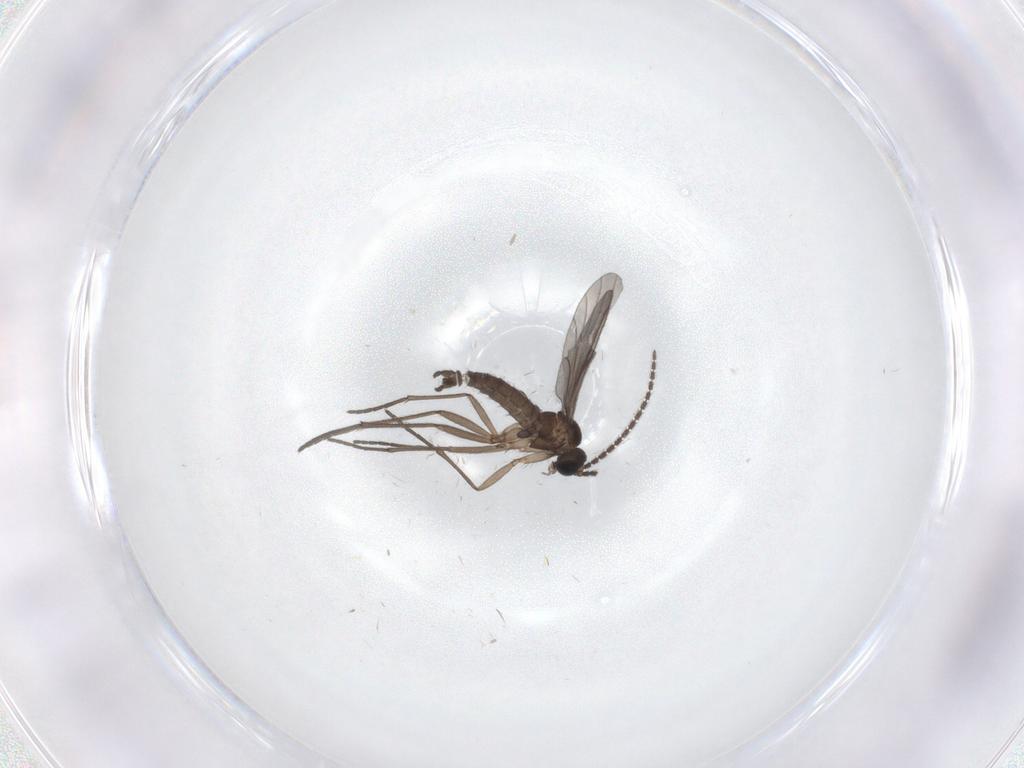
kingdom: Animalia
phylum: Arthropoda
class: Insecta
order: Diptera
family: Sciaridae
